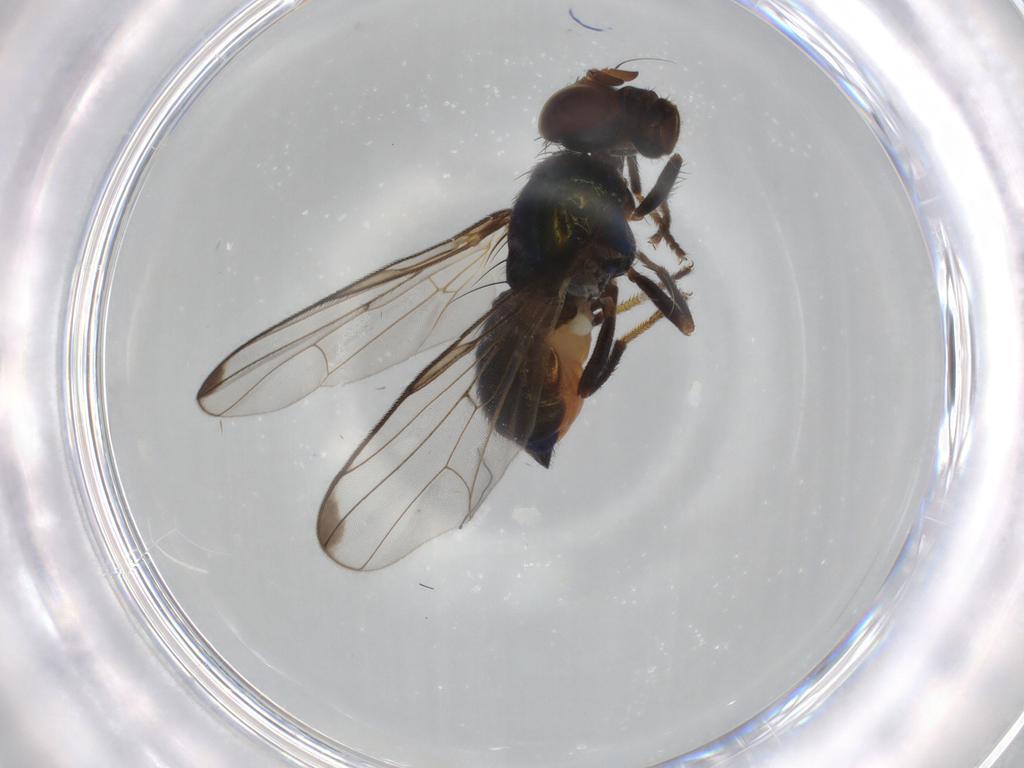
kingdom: Animalia
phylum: Arthropoda
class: Insecta
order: Diptera
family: Platystomatidae
